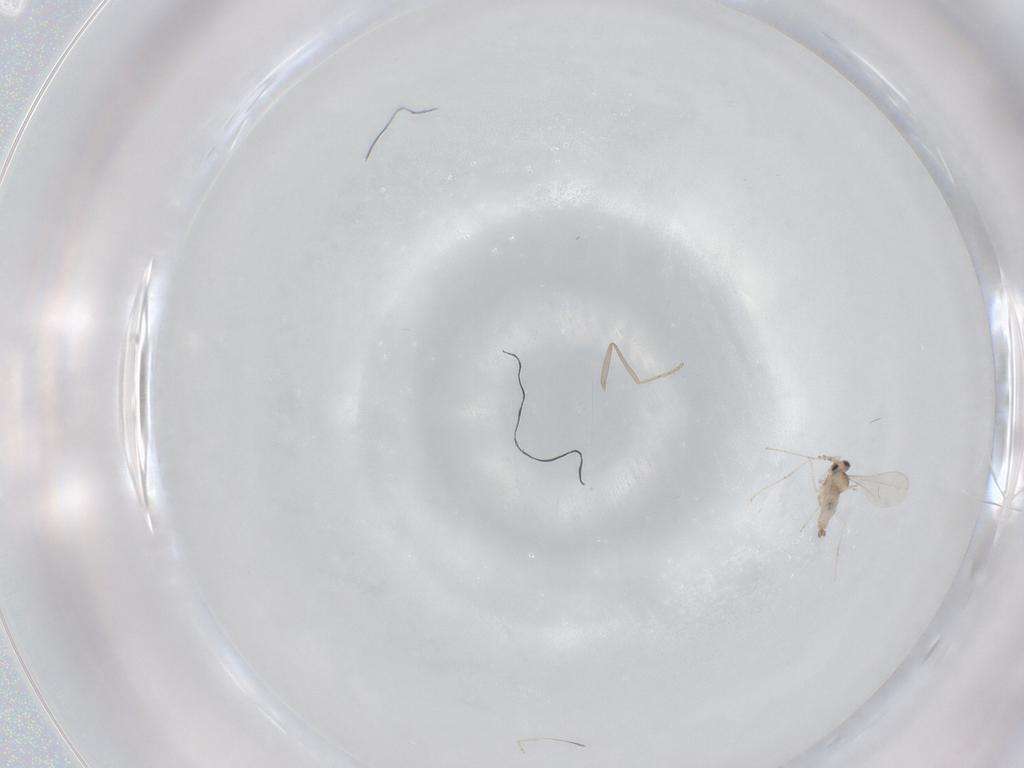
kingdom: Animalia
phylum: Arthropoda
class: Insecta
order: Diptera
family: Cecidomyiidae
